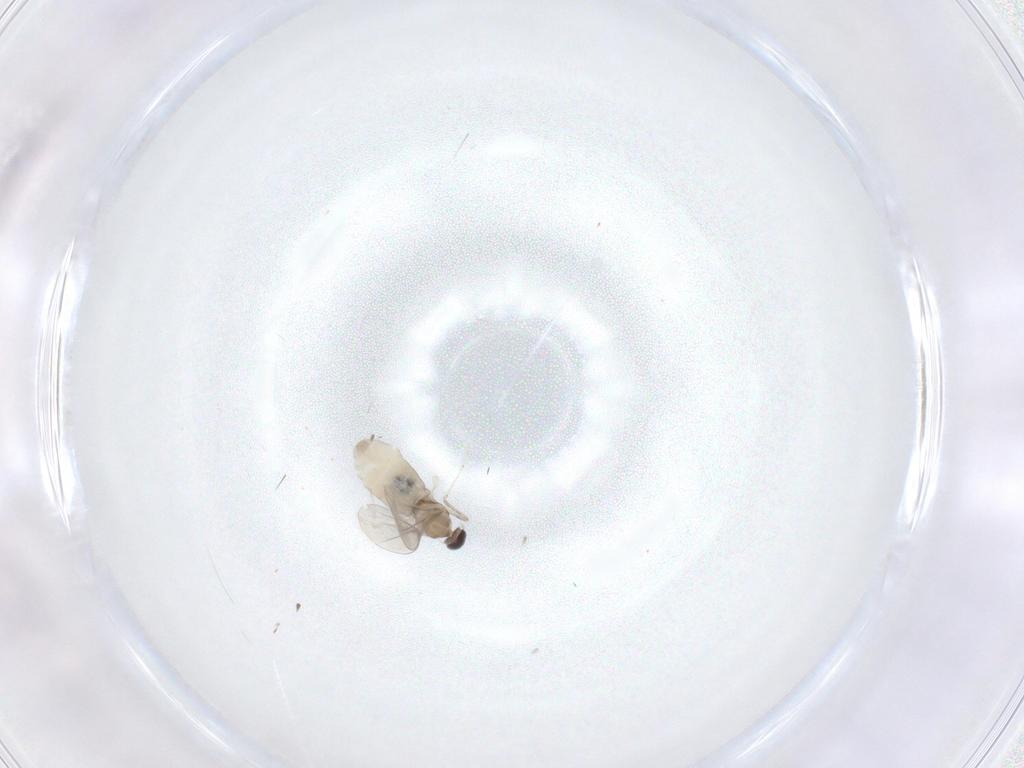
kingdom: Animalia
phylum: Arthropoda
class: Insecta
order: Diptera
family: Cecidomyiidae
